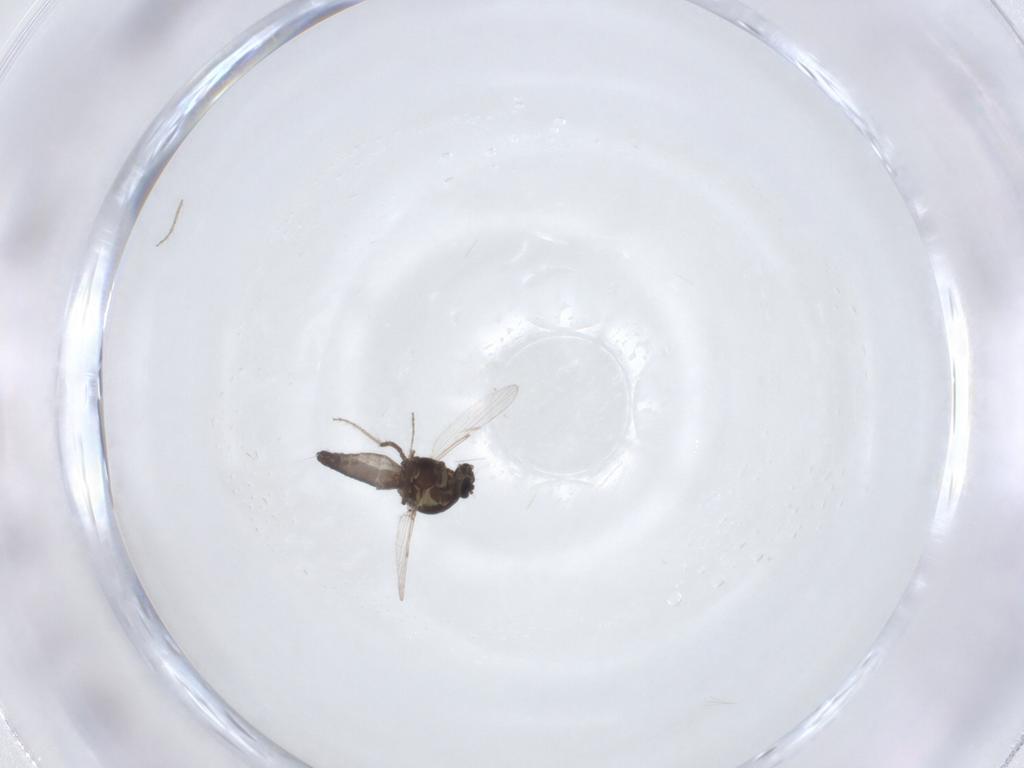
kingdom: Animalia
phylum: Arthropoda
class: Insecta
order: Diptera
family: Ceratopogonidae
